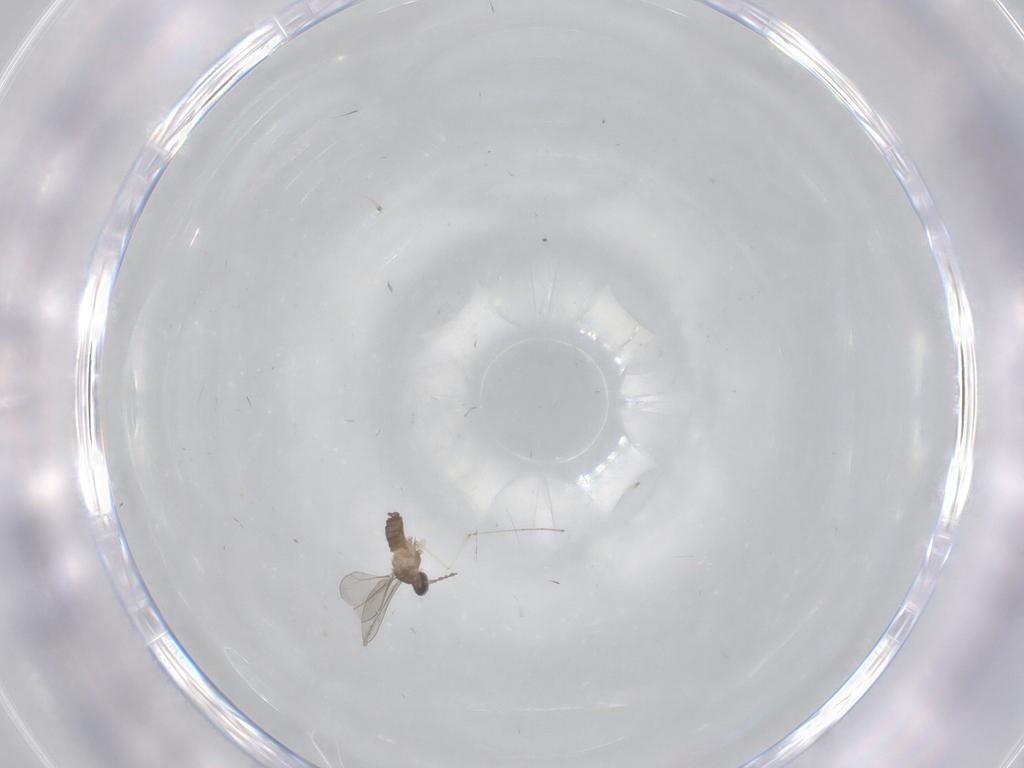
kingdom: Animalia
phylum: Arthropoda
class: Insecta
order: Diptera
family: Cecidomyiidae
